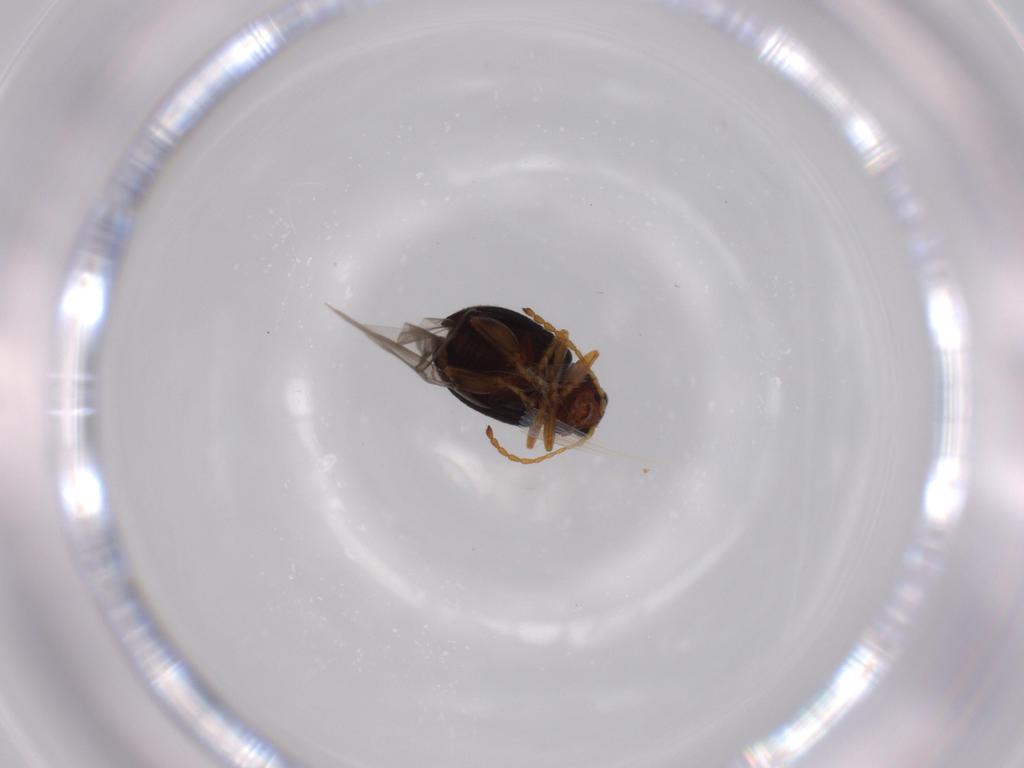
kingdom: Animalia
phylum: Arthropoda
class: Insecta
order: Coleoptera
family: Chrysomelidae
